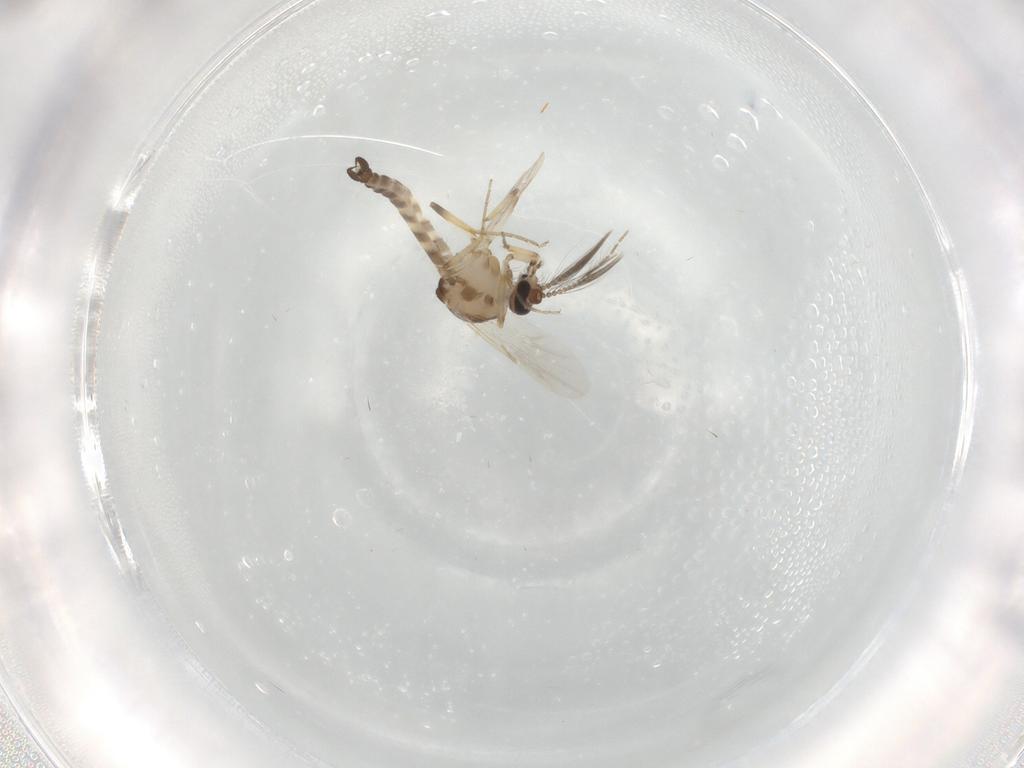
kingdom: Animalia
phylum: Arthropoda
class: Insecta
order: Diptera
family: Ceratopogonidae
